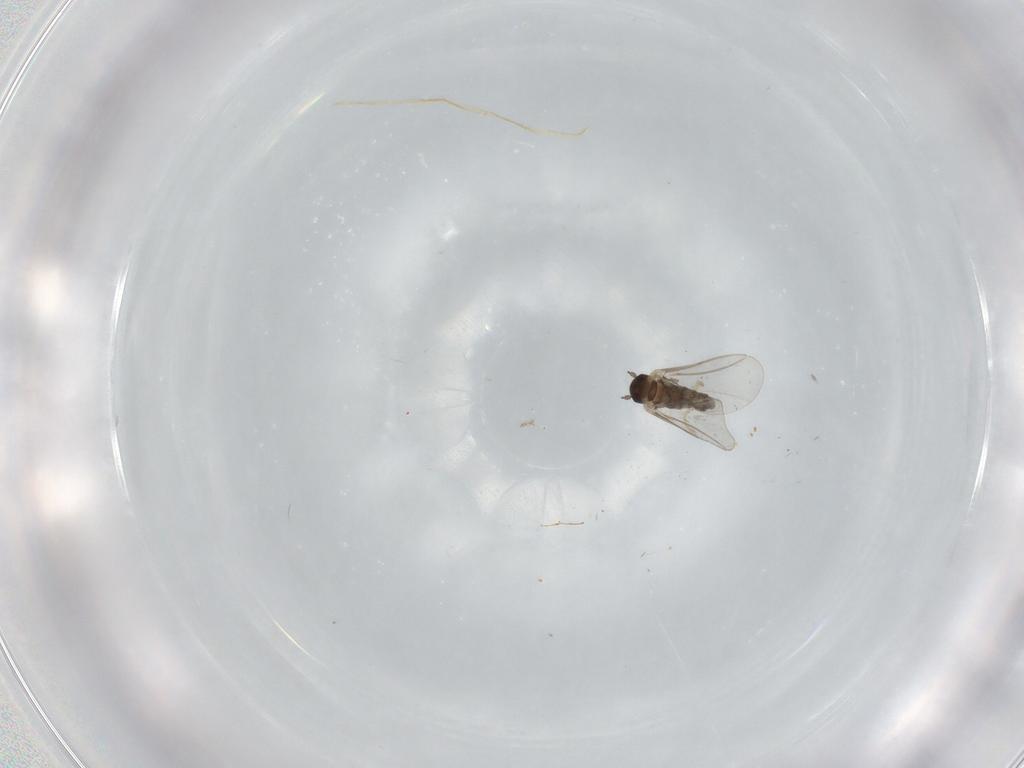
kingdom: Animalia
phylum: Arthropoda
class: Insecta
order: Diptera
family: Cecidomyiidae
